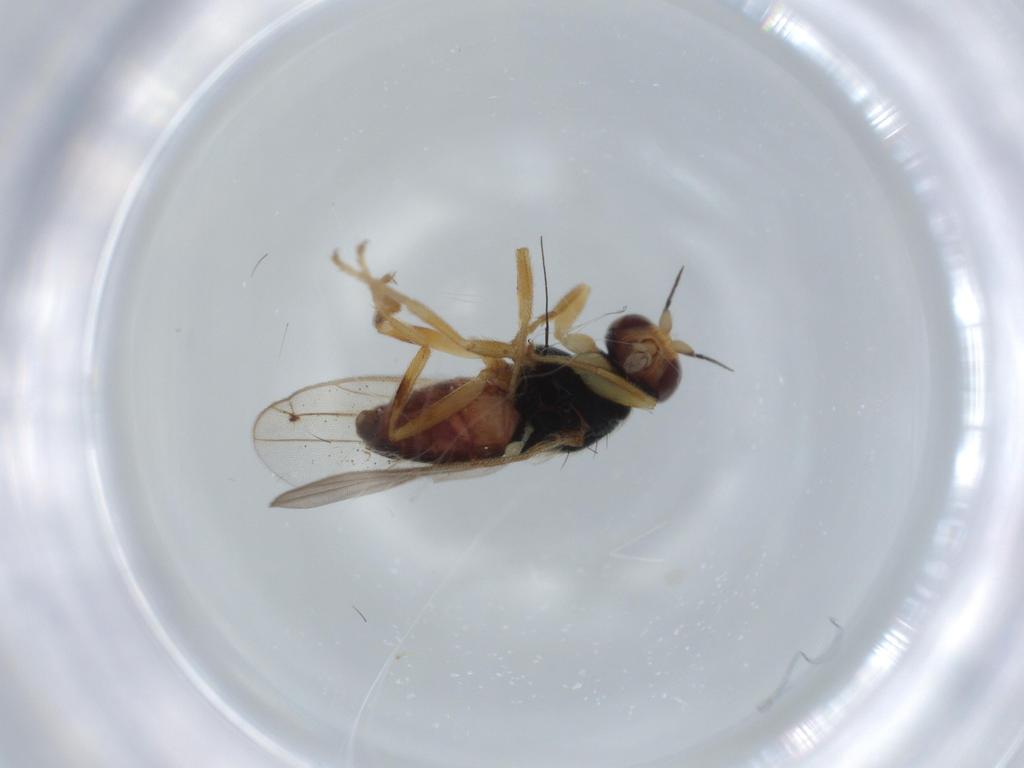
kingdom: Animalia
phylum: Arthropoda
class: Insecta
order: Diptera
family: Chloropidae
